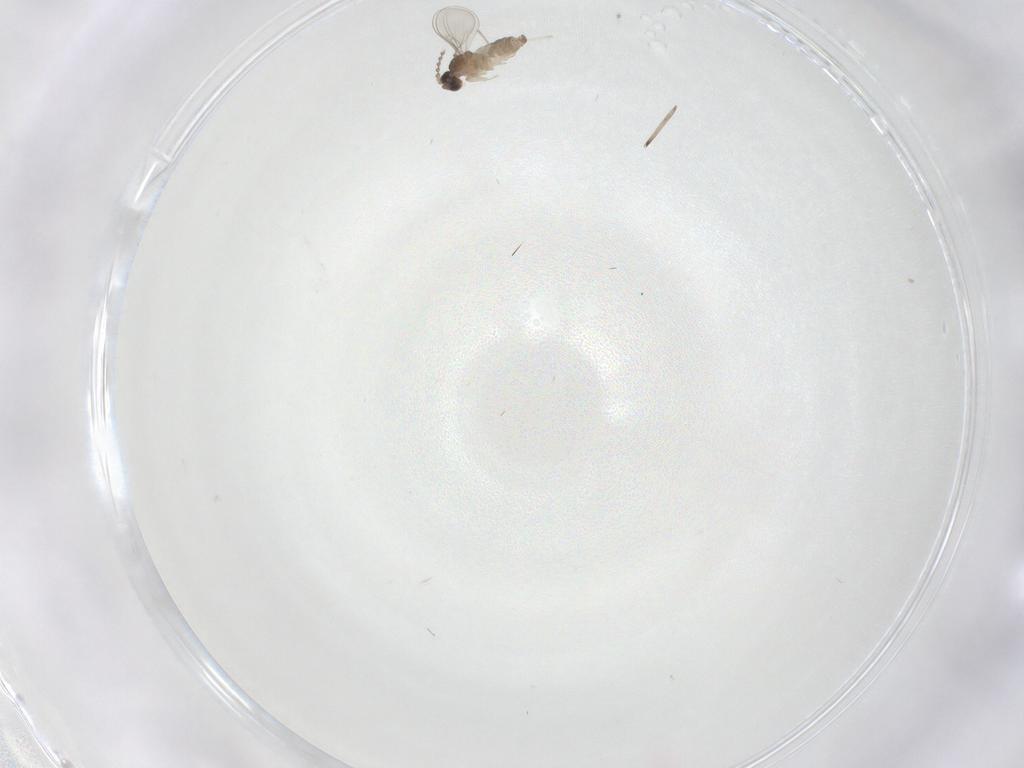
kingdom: Animalia
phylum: Arthropoda
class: Insecta
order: Diptera
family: Cecidomyiidae
